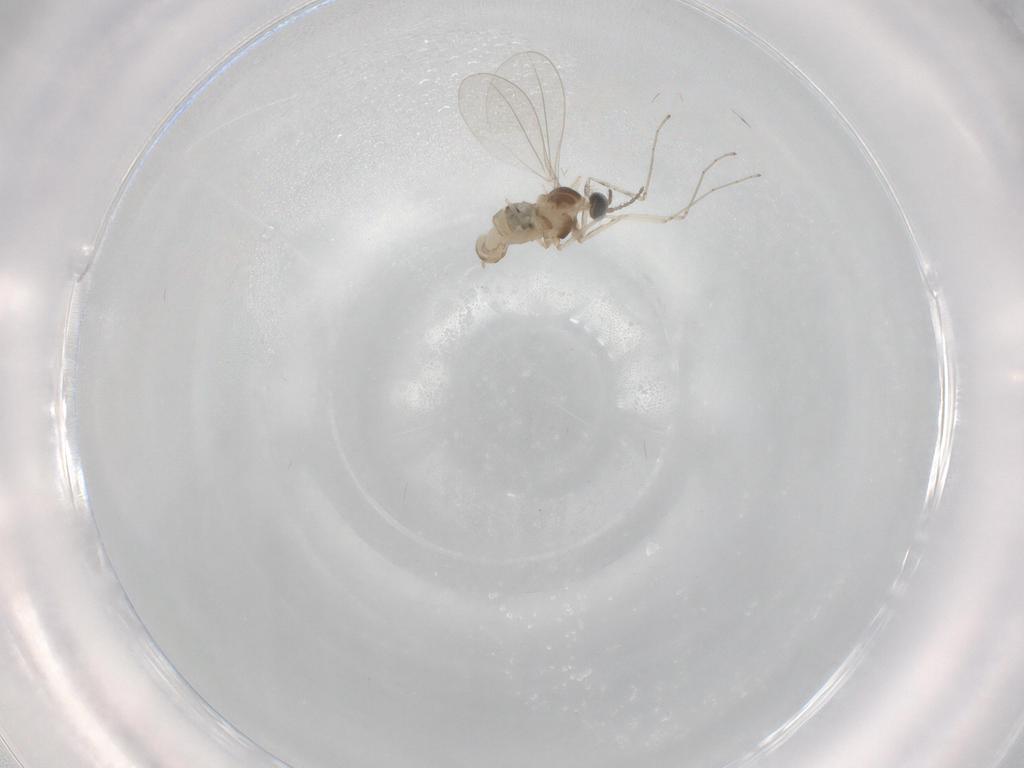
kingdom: Animalia
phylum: Arthropoda
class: Insecta
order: Diptera
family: Cecidomyiidae
